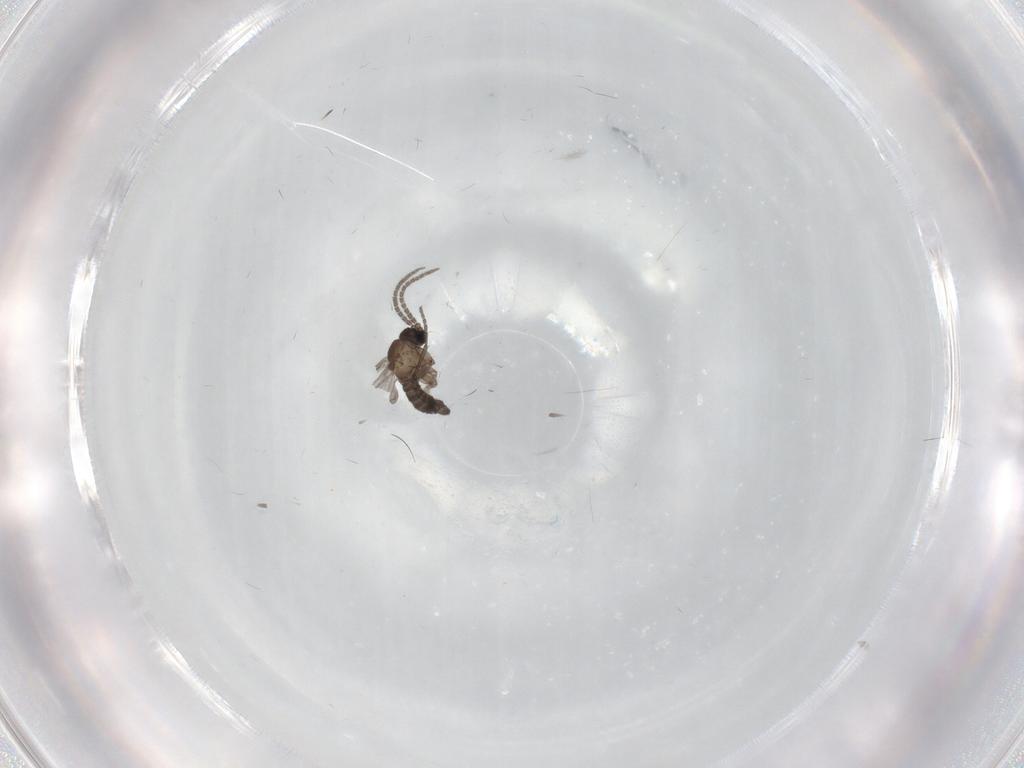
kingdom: Animalia
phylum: Arthropoda
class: Insecta
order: Diptera
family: Sciaridae
